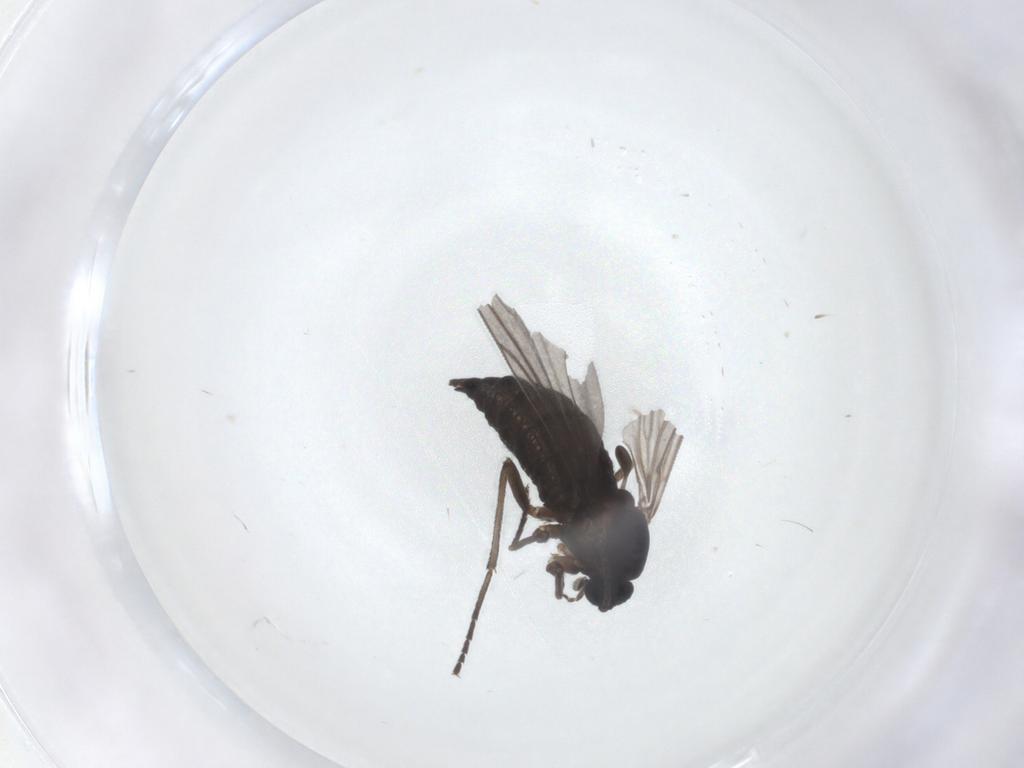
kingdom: Animalia
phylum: Arthropoda
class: Insecta
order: Diptera
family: Sciaridae
